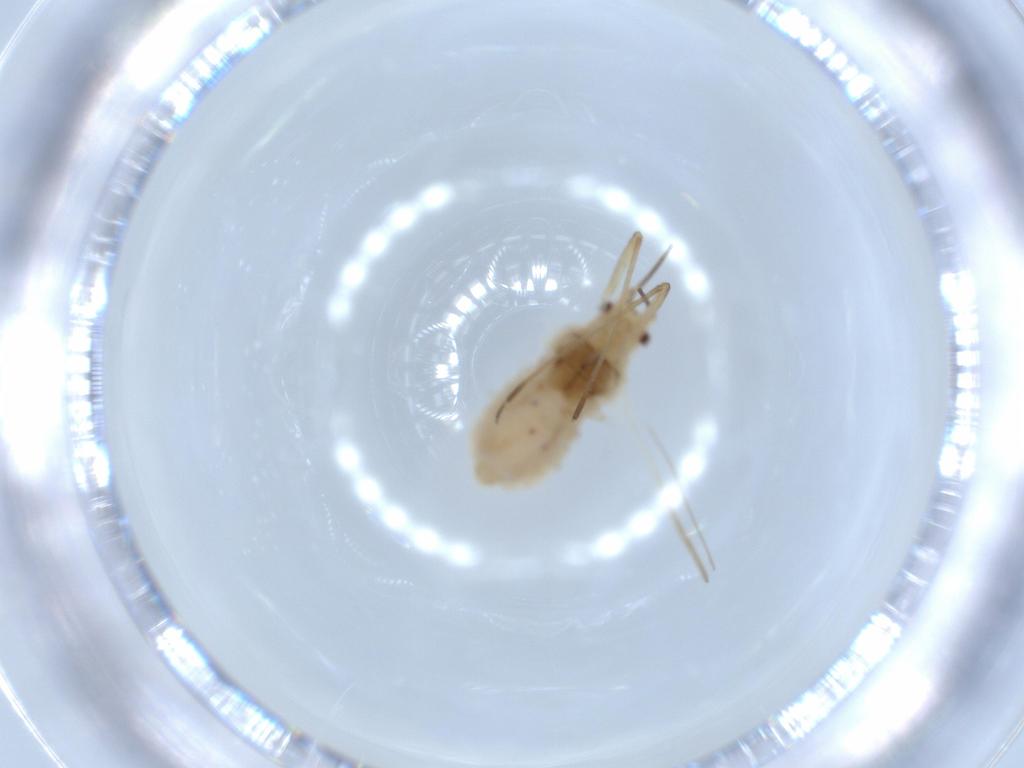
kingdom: Animalia
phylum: Arthropoda
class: Insecta
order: Hemiptera
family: Aphididae
